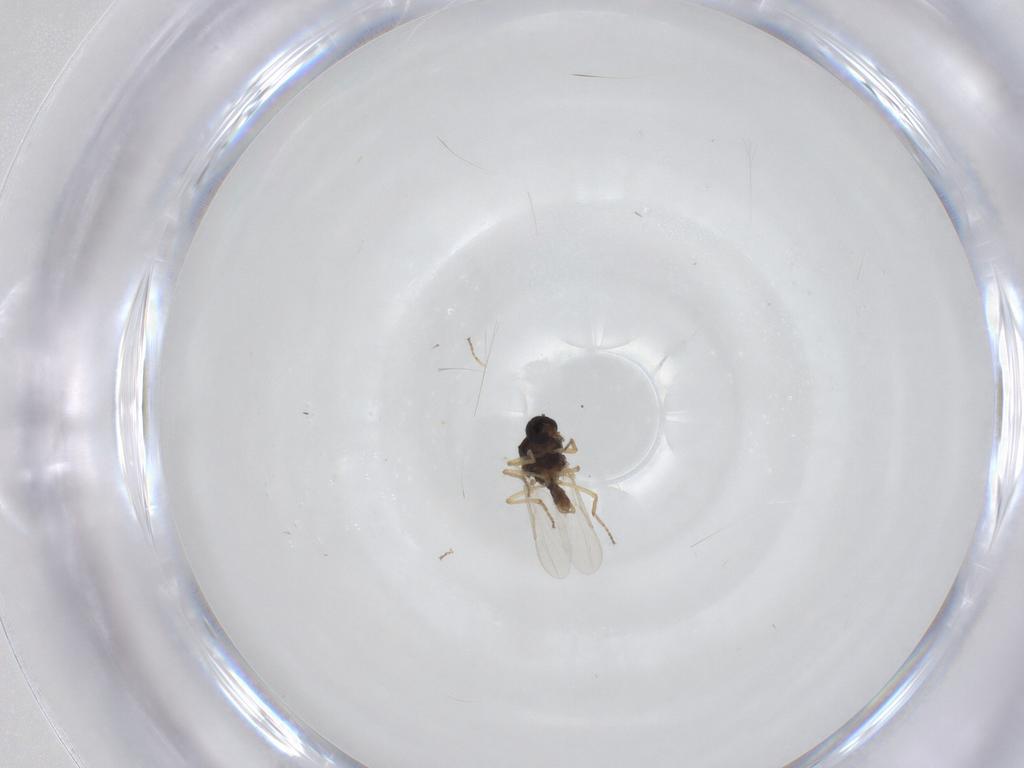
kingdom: Animalia
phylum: Arthropoda
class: Insecta
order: Diptera
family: Ceratopogonidae
